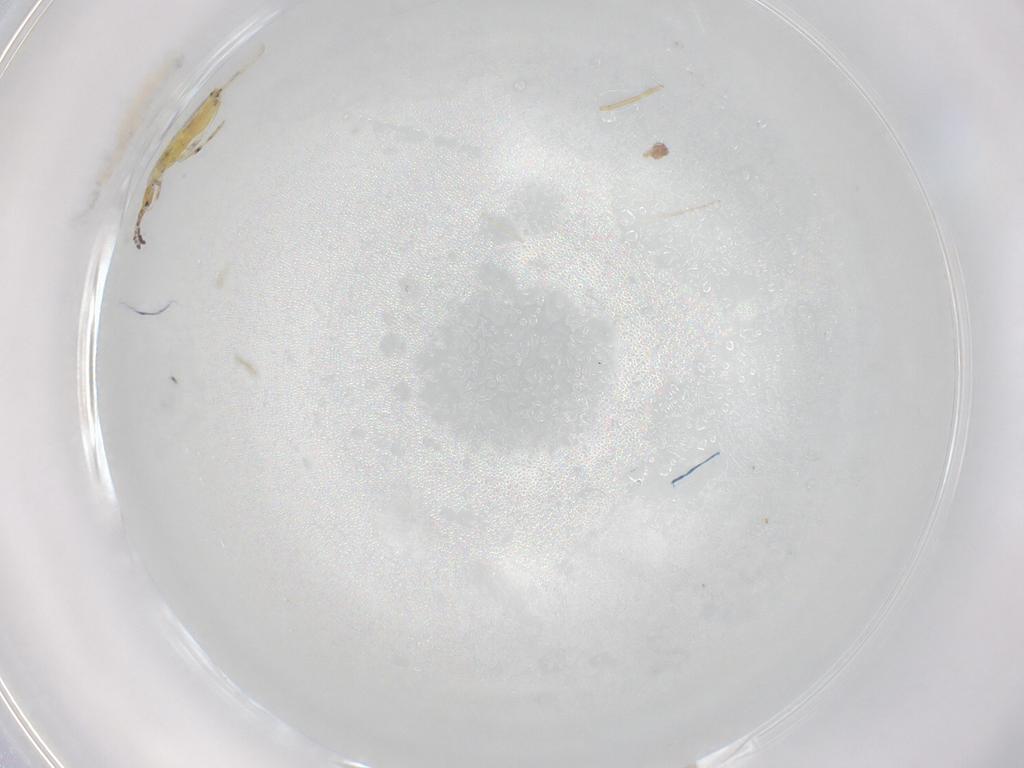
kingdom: Animalia
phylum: Arthropoda
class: Collembola
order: Entomobryomorpha
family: Entomobryidae
